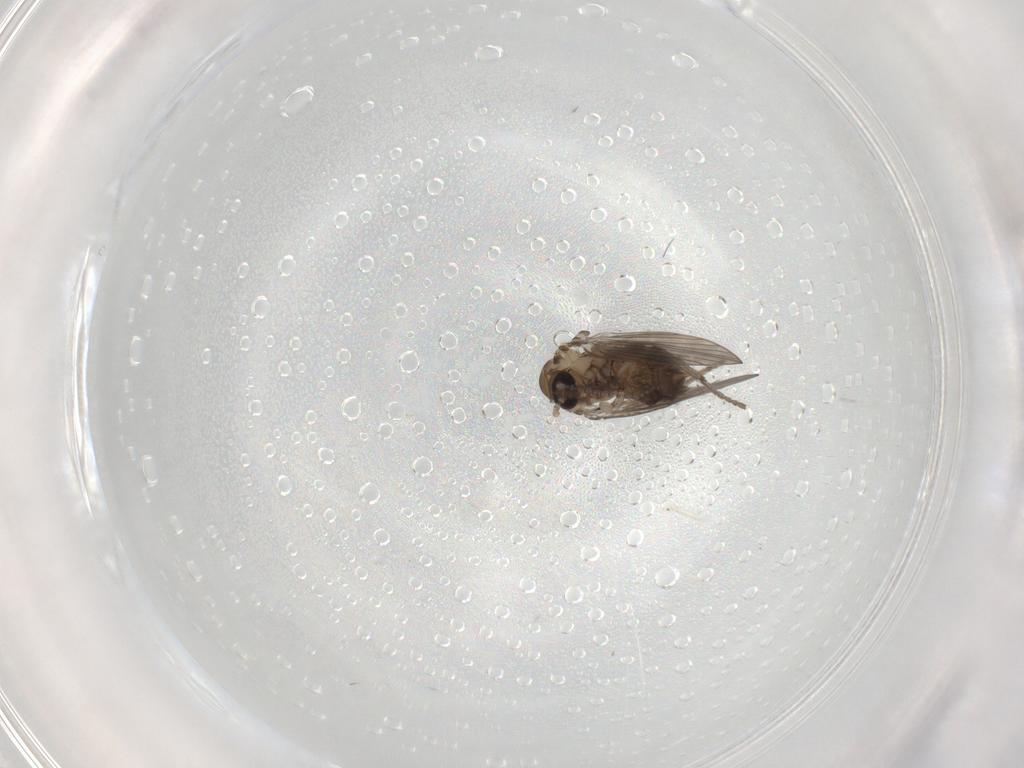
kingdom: Animalia
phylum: Arthropoda
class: Insecta
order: Diptera
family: Psychodidae
